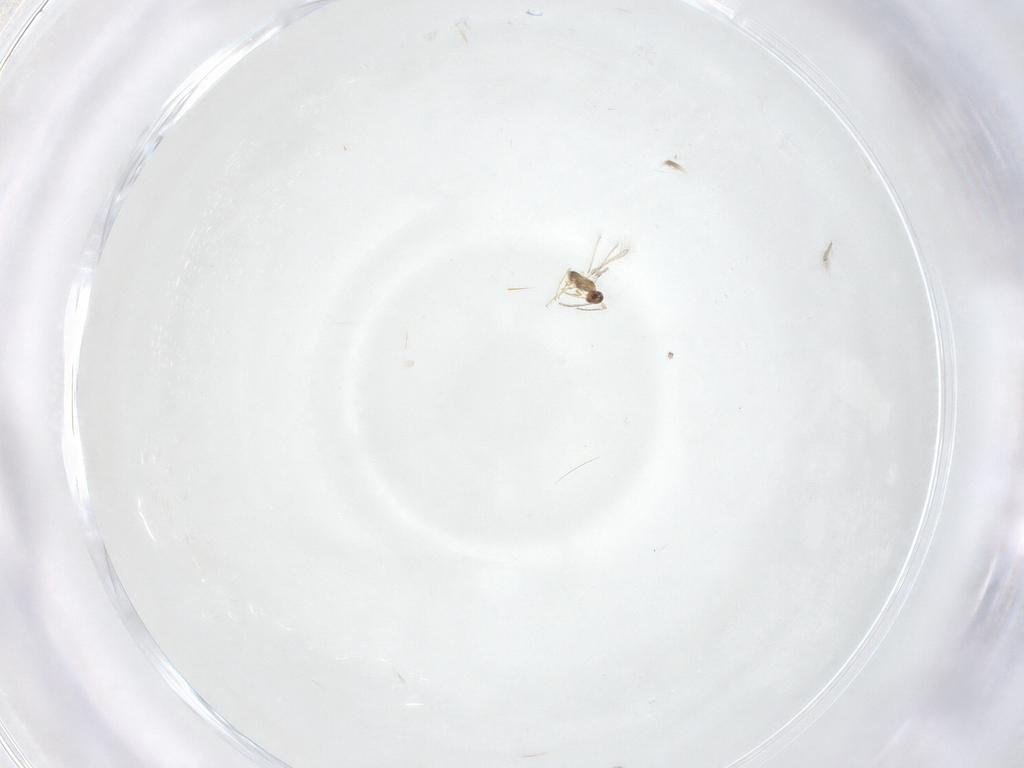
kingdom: Animalia
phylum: Arthropoda
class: Insecta
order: Hymenoptera
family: Mymaridae
